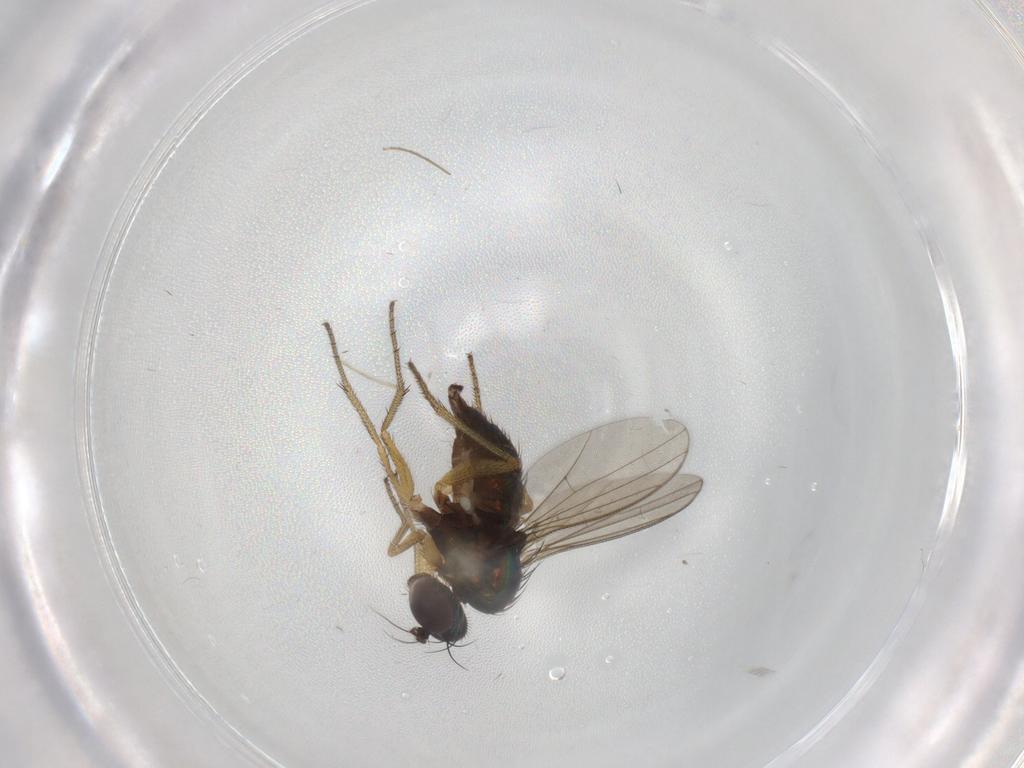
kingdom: Animalia
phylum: Arthropoda
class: Insecta
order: Diptera
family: Chironomidae
